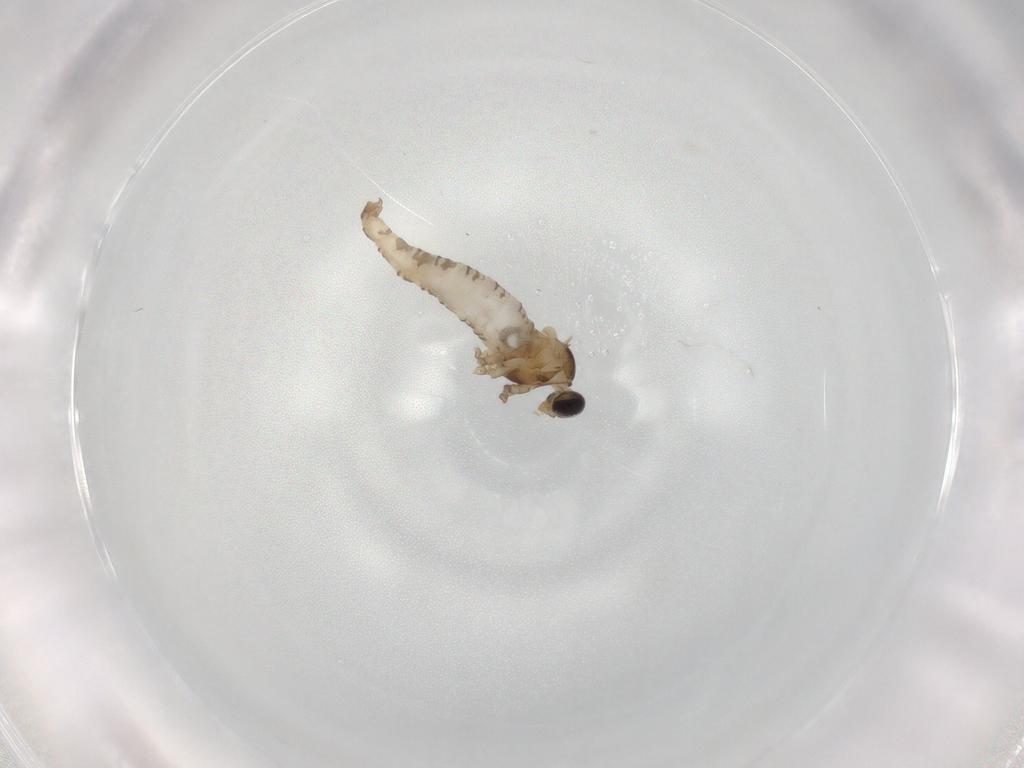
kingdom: Animalia
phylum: Arthropoda
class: Insecta
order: Diptera
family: Cecidomyiidae
